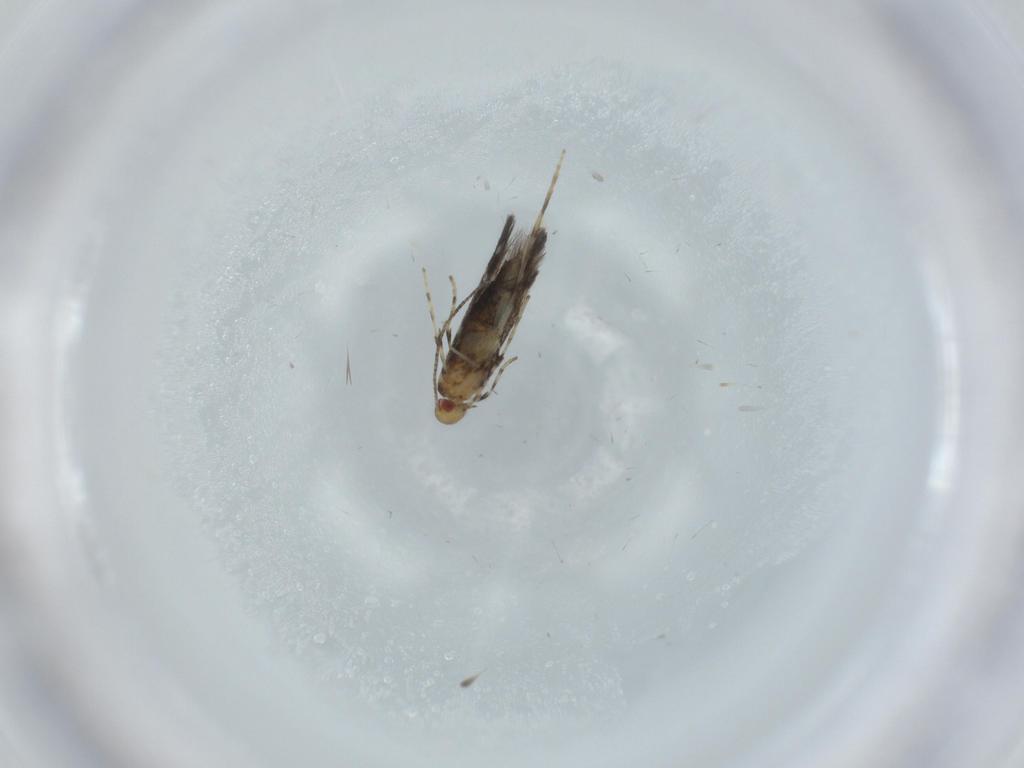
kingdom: Animalia
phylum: Arthropoda
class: Insecta
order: Lepidoptera
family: Gracillariidae
